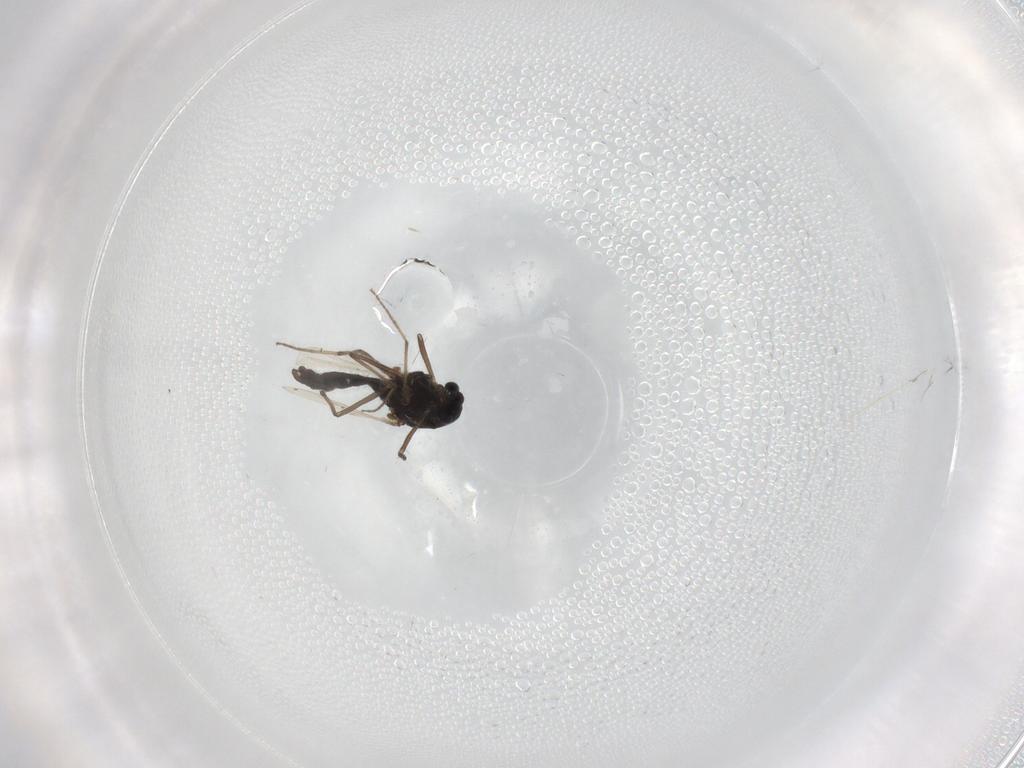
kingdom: Animalia
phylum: Arthropoda
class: Insecta
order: Diptera
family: Chironomidae
